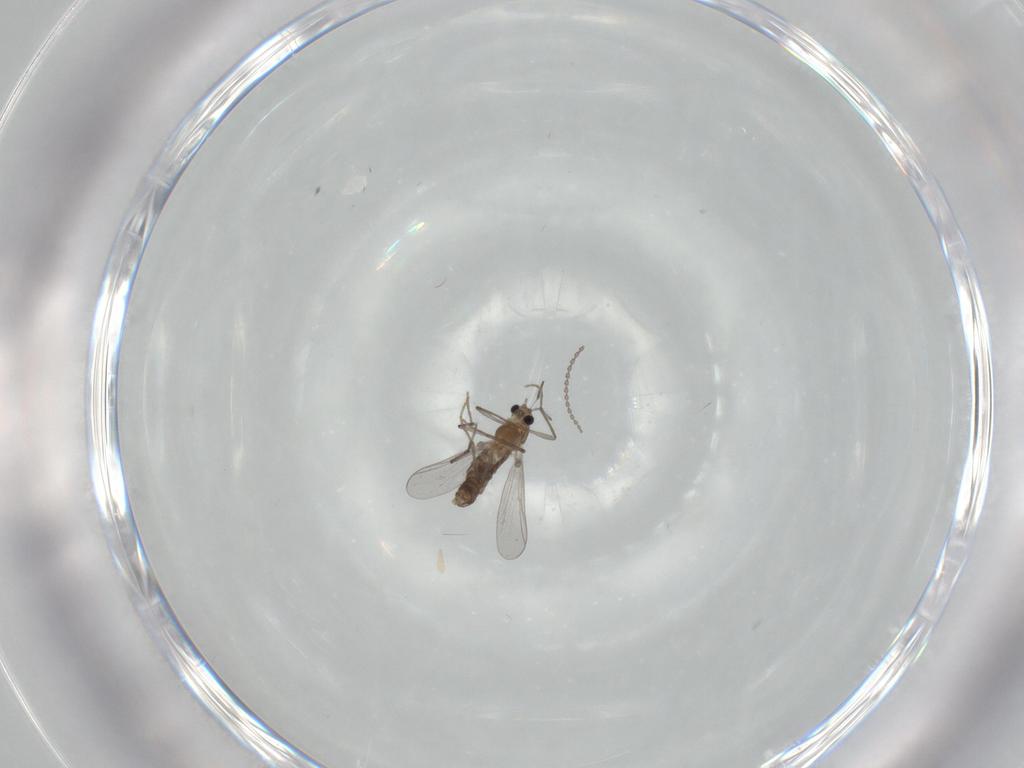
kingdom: Animalia
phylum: Arthropoda
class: Insecta
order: Diptera
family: Chironomidae
